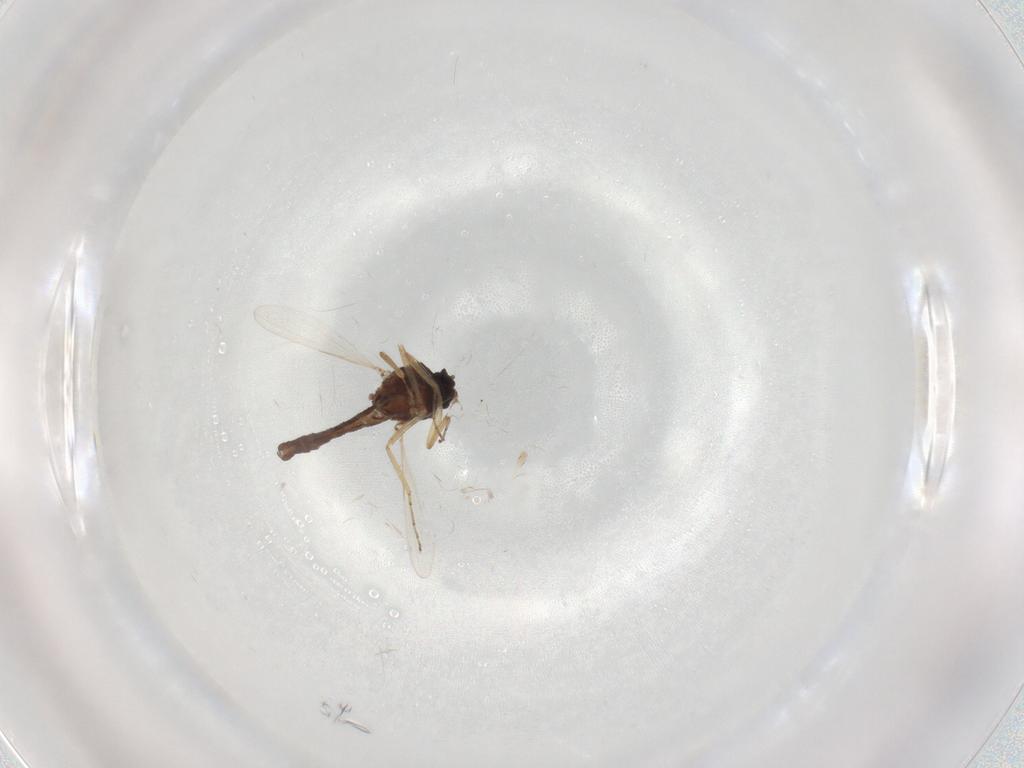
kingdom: Animalia
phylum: Arthropoda
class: Insecta
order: Diptera
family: Ceratopogonidae
